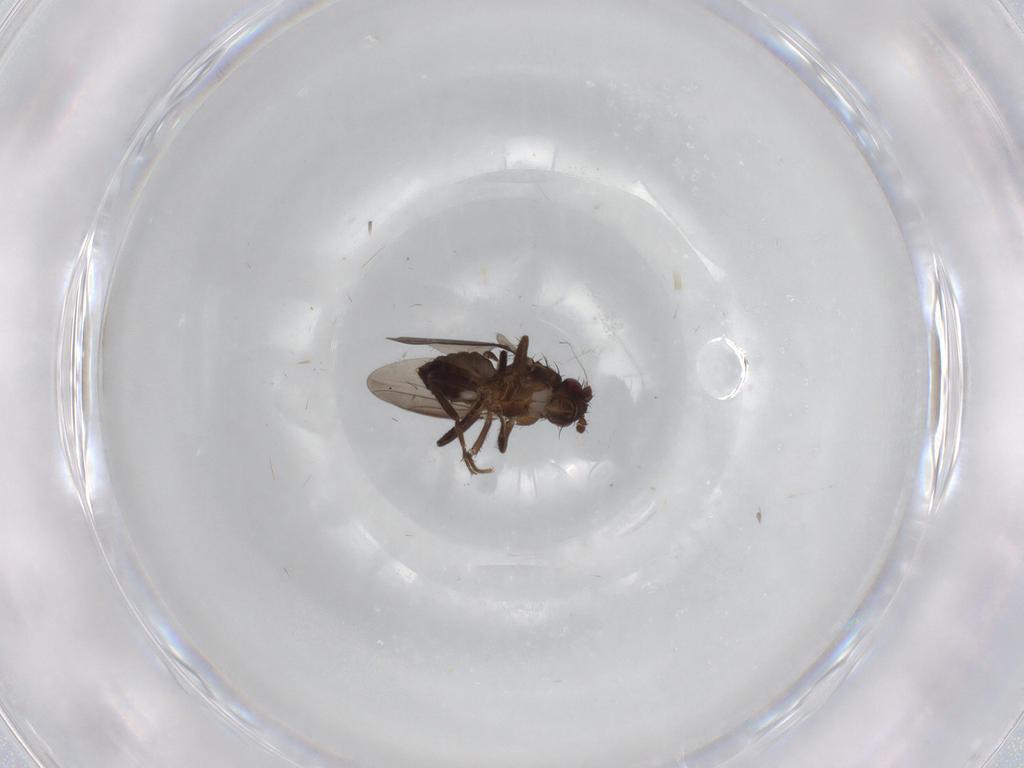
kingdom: Animalia
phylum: Arthropoda
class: Insecta
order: Diptera
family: Sphaeroceridae
